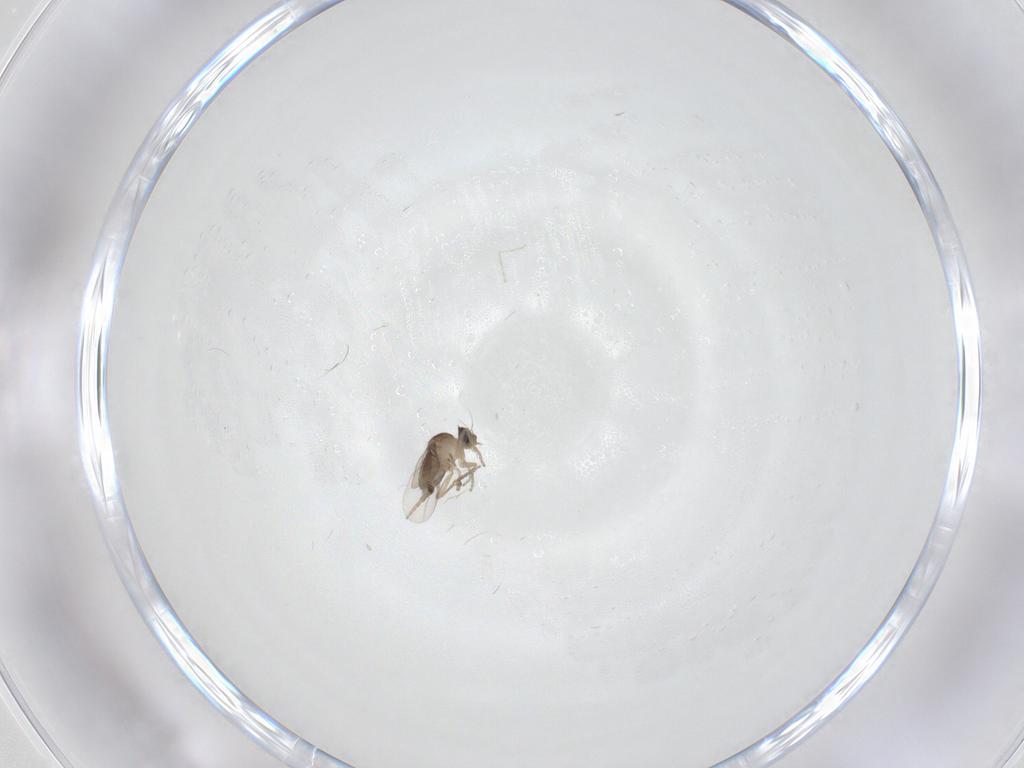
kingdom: Animalia
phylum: Arthropoda
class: Insecta
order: Diptera
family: Phoridae
